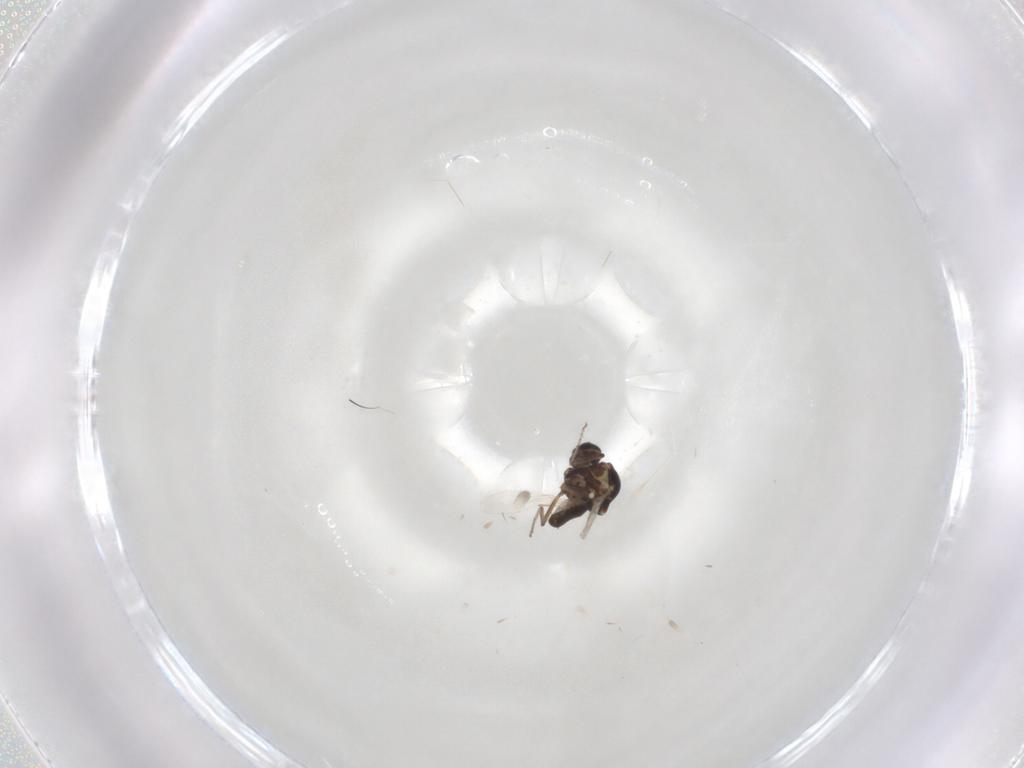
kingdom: Animalia
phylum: Arthropoda
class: Insecta
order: Diptera
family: Ceratopogonidae
